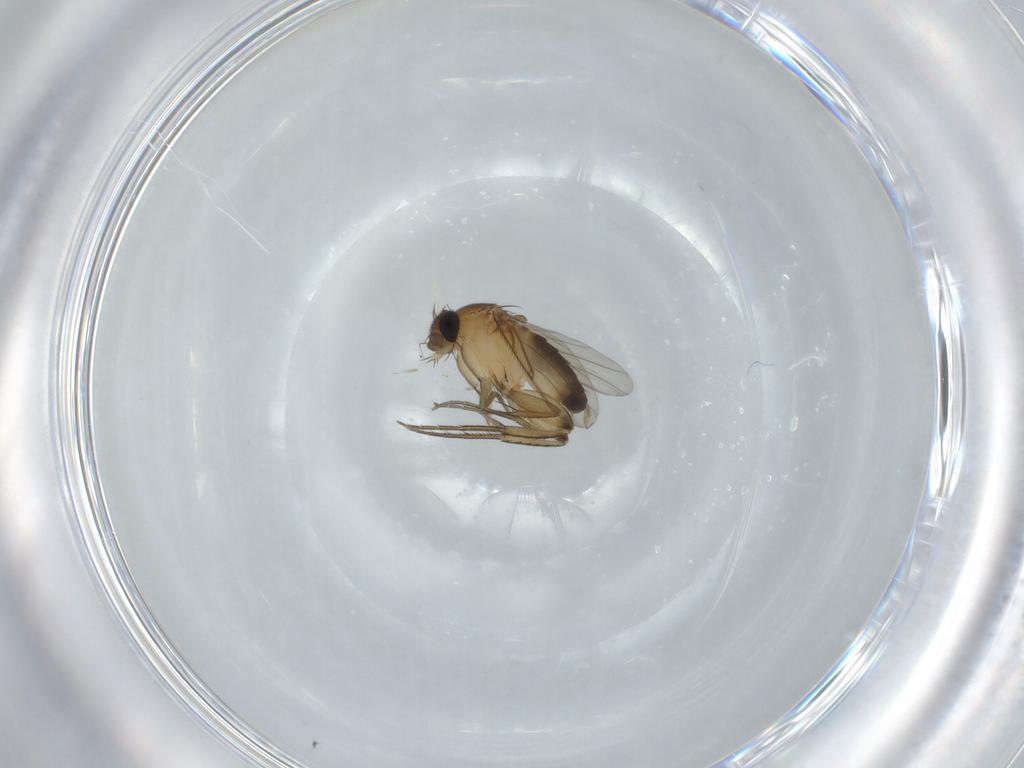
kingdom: Animalia
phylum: Arthropoda
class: Insecta
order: Diptera
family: Phoridae
